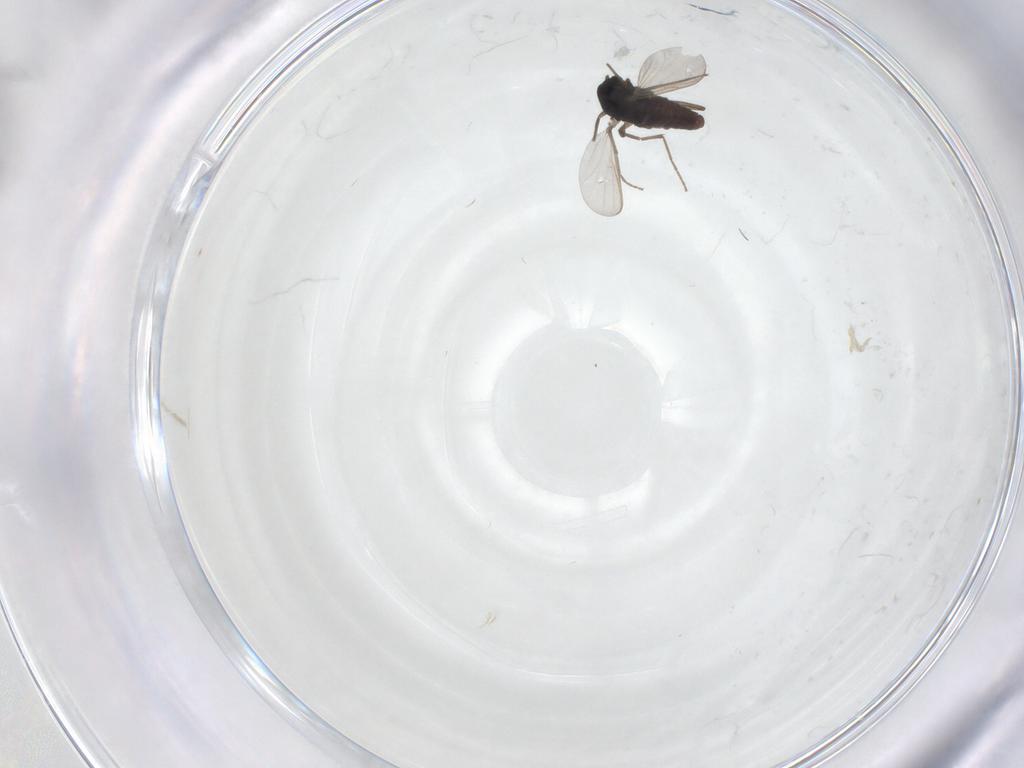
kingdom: Animalia
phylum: Arthropoda
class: Insecta
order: Diptera
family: Chironomidae
